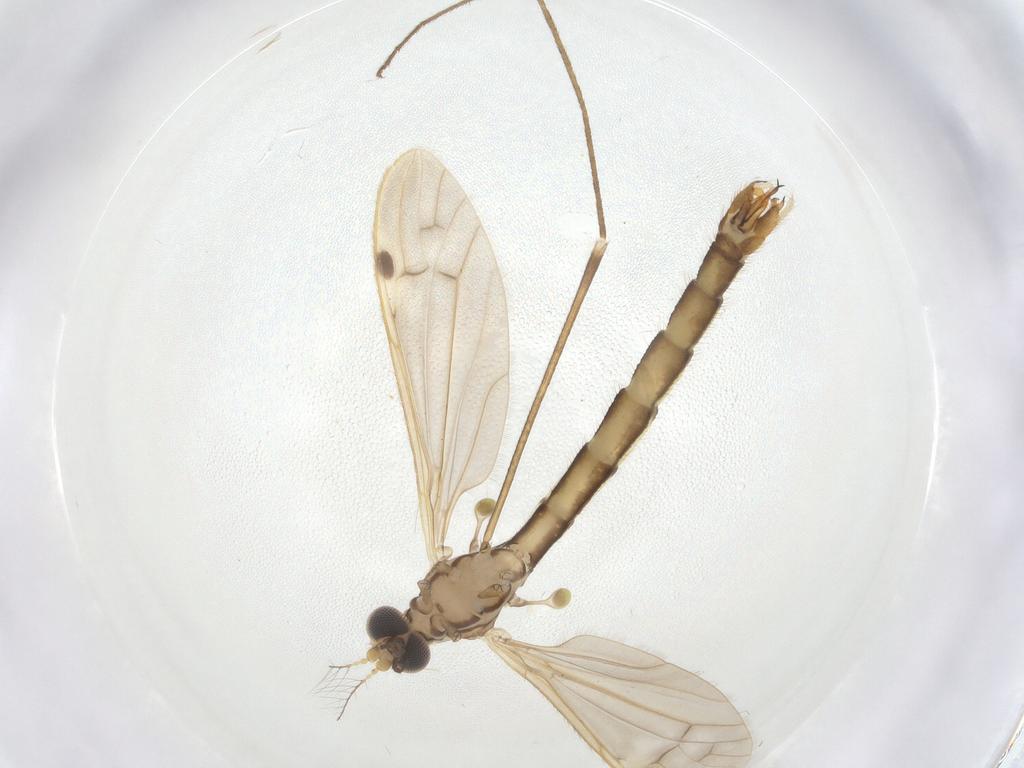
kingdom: Animalia
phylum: Arthropoda
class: Insecta
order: Diptera
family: Limoniidae
